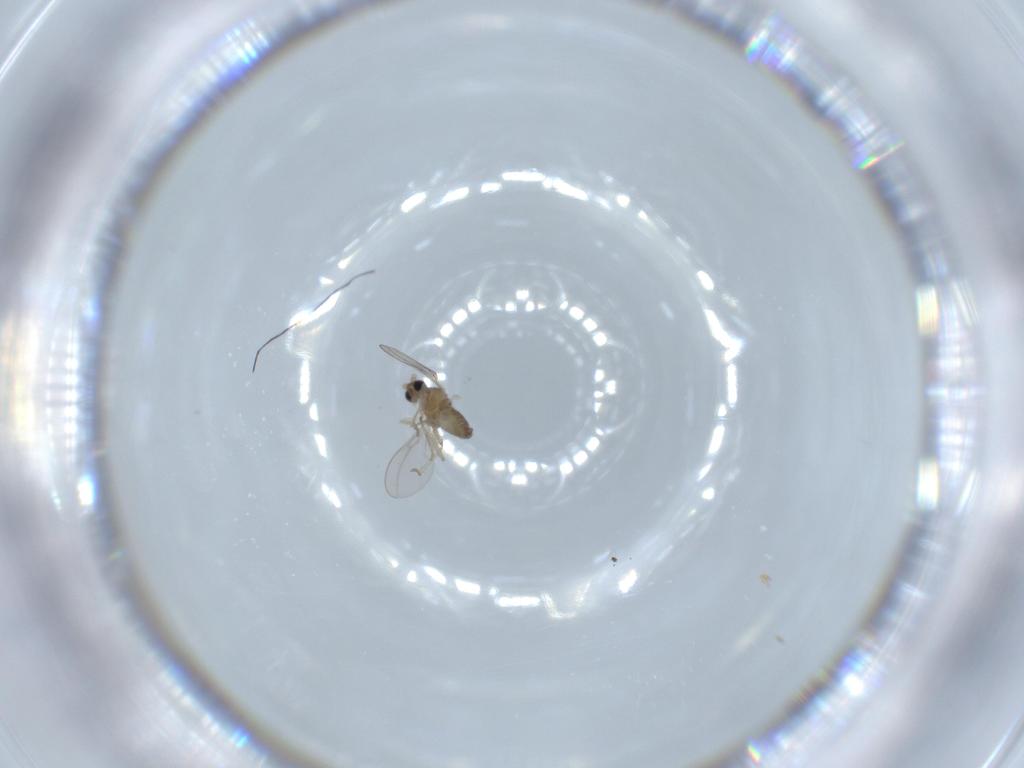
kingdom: Animalia
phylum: Arthropoda
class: Insecta
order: Diptera
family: Cecidomyiidae
